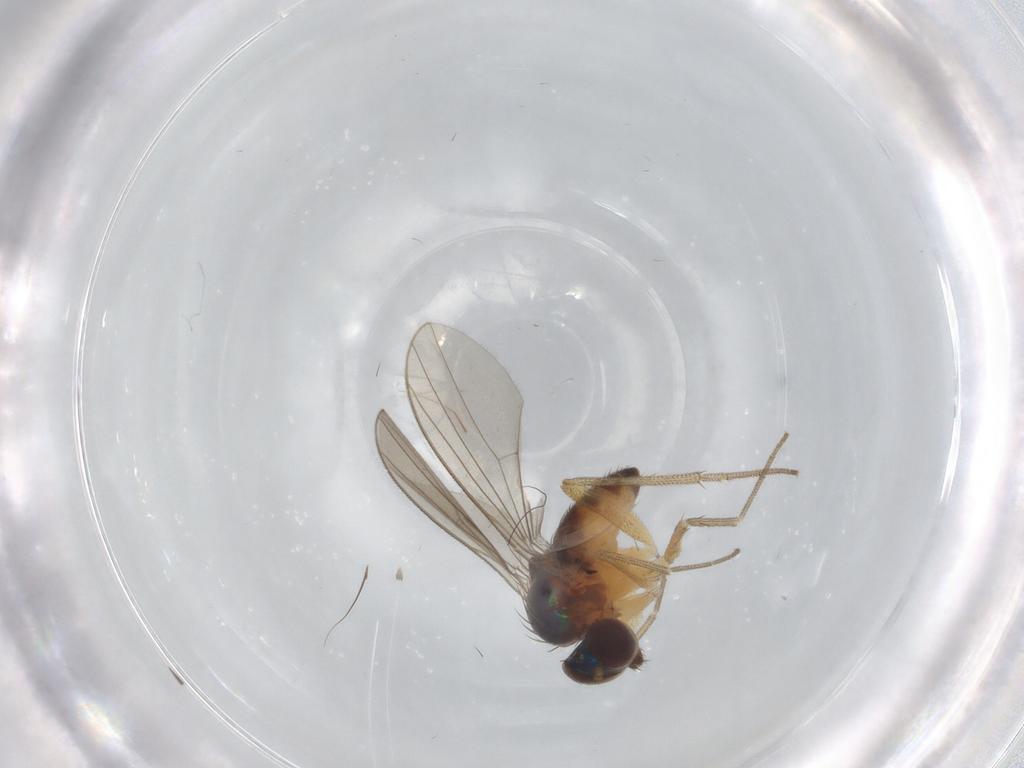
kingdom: Animalia
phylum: Arthropoda
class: Insecta
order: Diptera
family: Dolichopodidae
